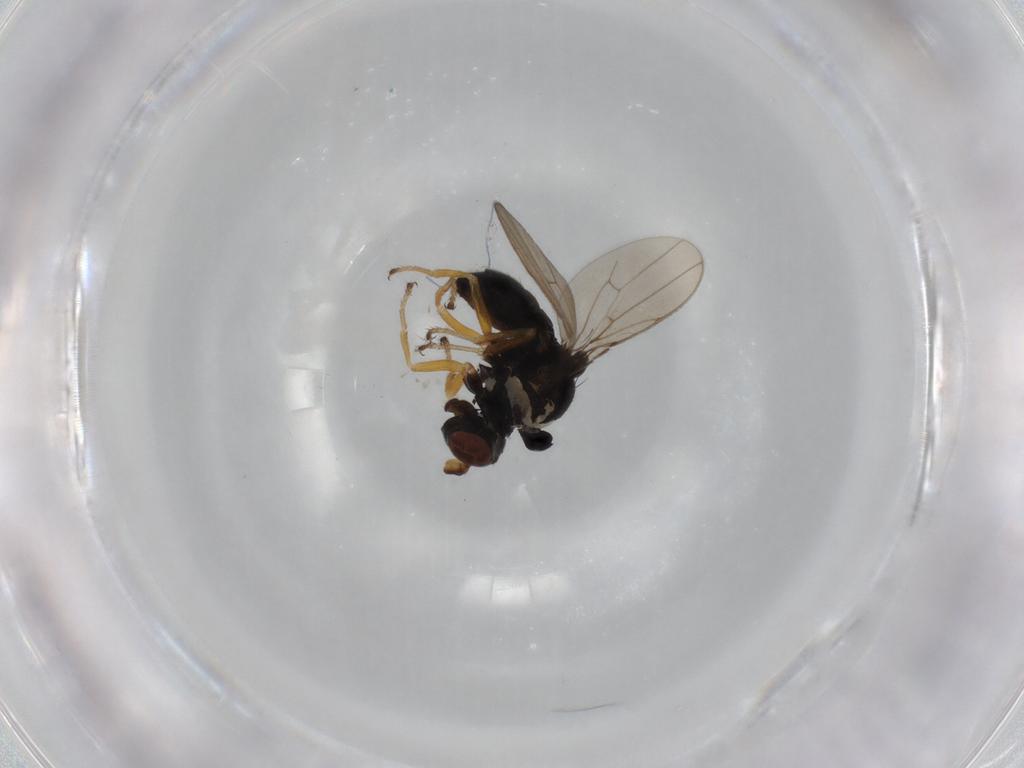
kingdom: Animalia
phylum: Arthropoda
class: Insecta
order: Diptera
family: Ephydridae
